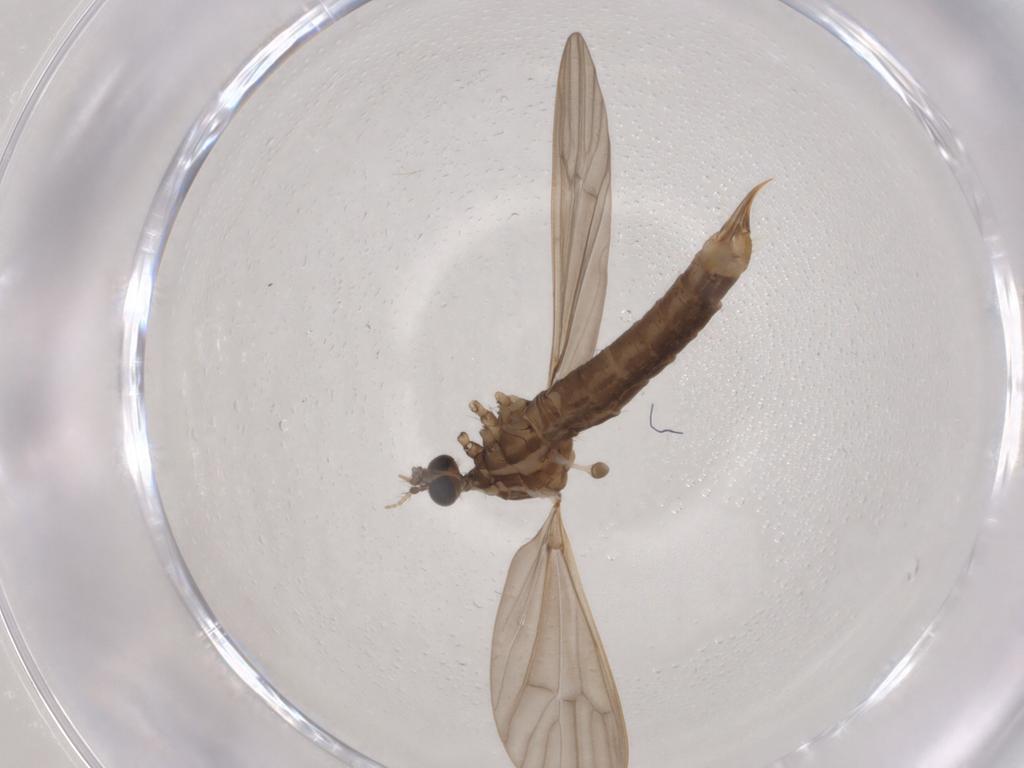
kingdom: Animalia
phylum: Arthropoda
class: Insecta
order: Diptera
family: Limoniidae
